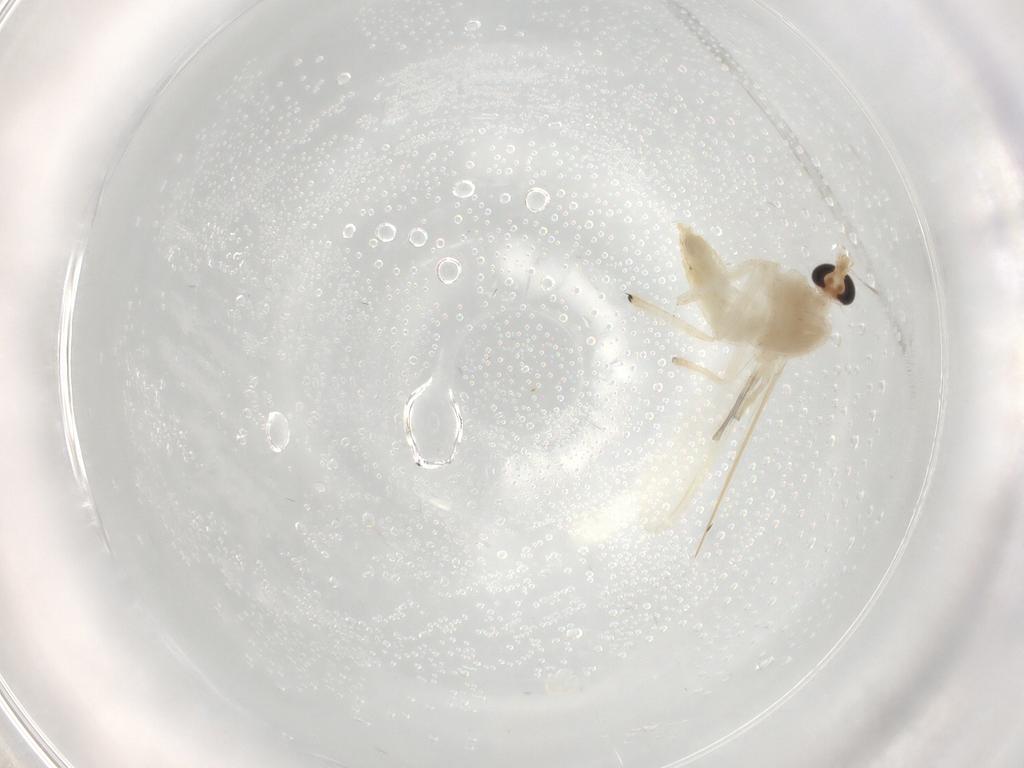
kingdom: Animalia
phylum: Arthropoda
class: Insecta
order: Diptera
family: Cecidomyiidae
